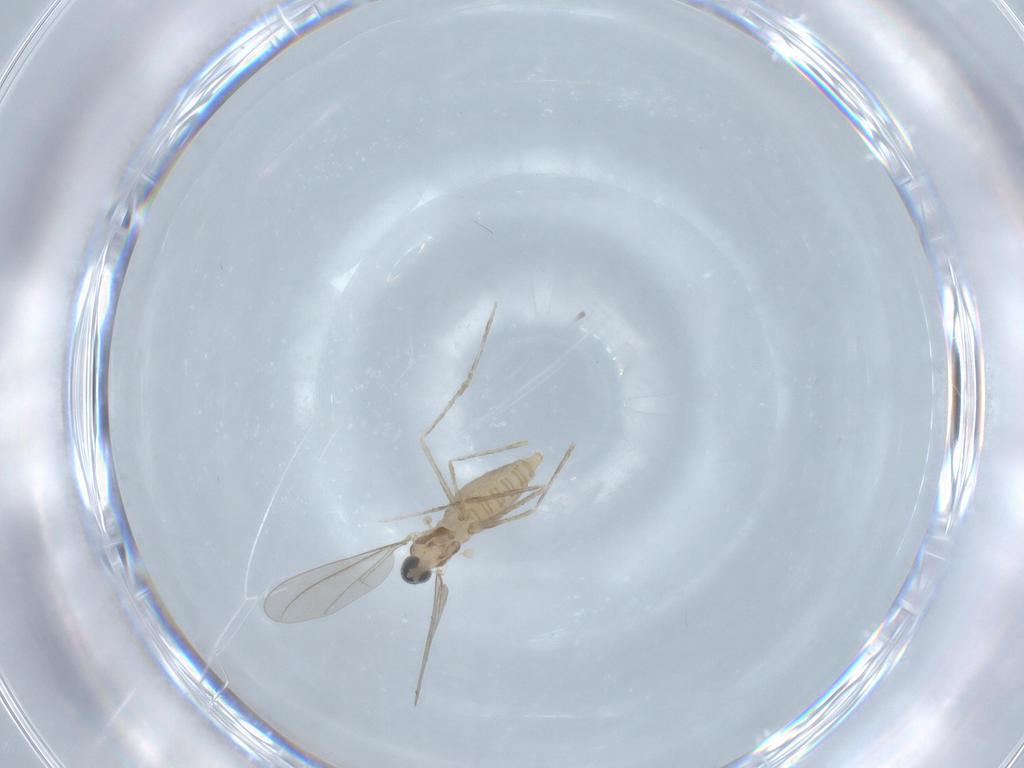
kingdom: Animalia
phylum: Arthropoda
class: Insecta
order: Diptera
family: Cecidomyiidae
